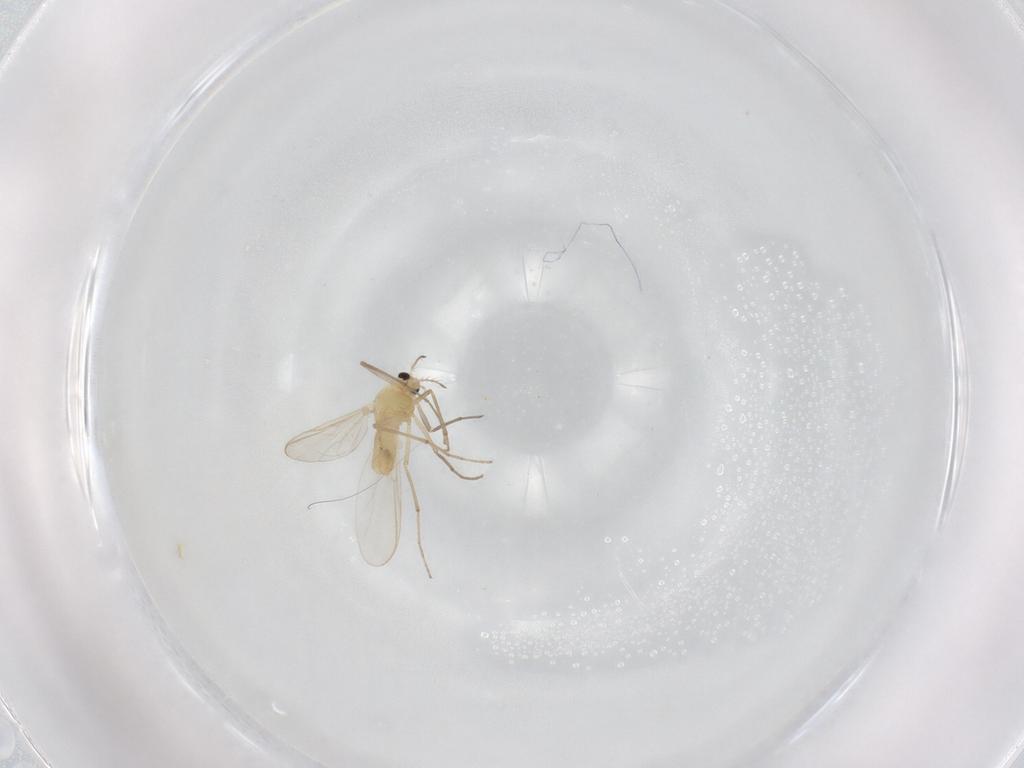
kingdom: Animalia
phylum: Arthropoda
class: Insecta
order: Diptera
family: Chironomidae
